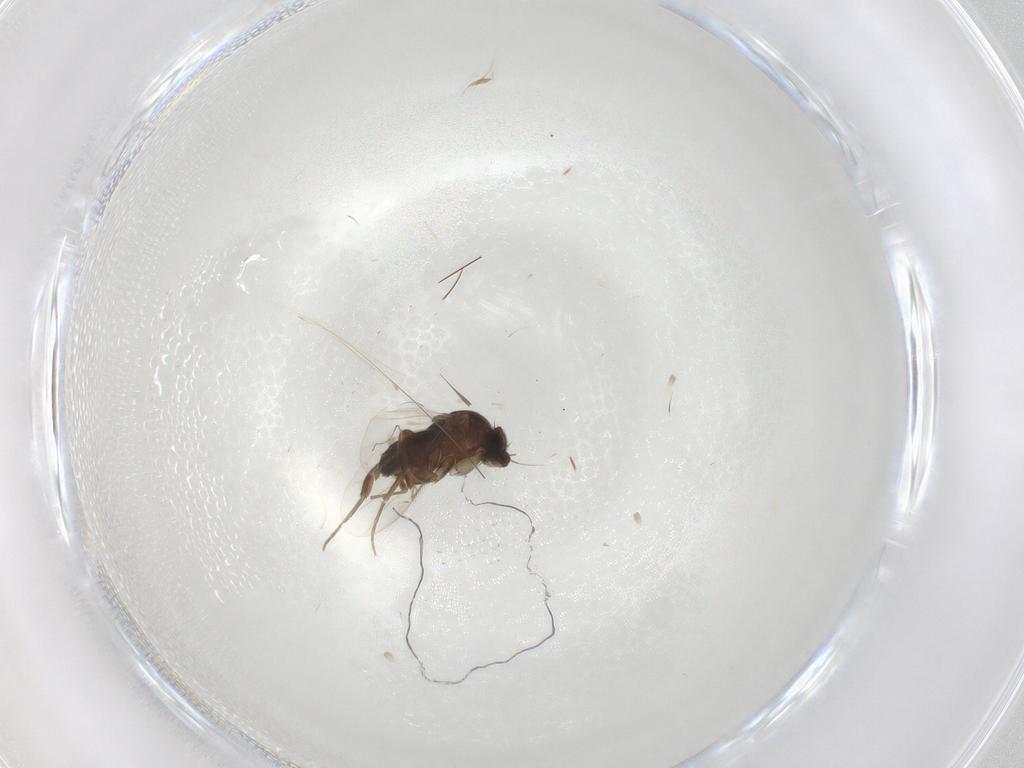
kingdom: Animalia
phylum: Arthropoda
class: Insecta
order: Diptera
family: Phoridae
